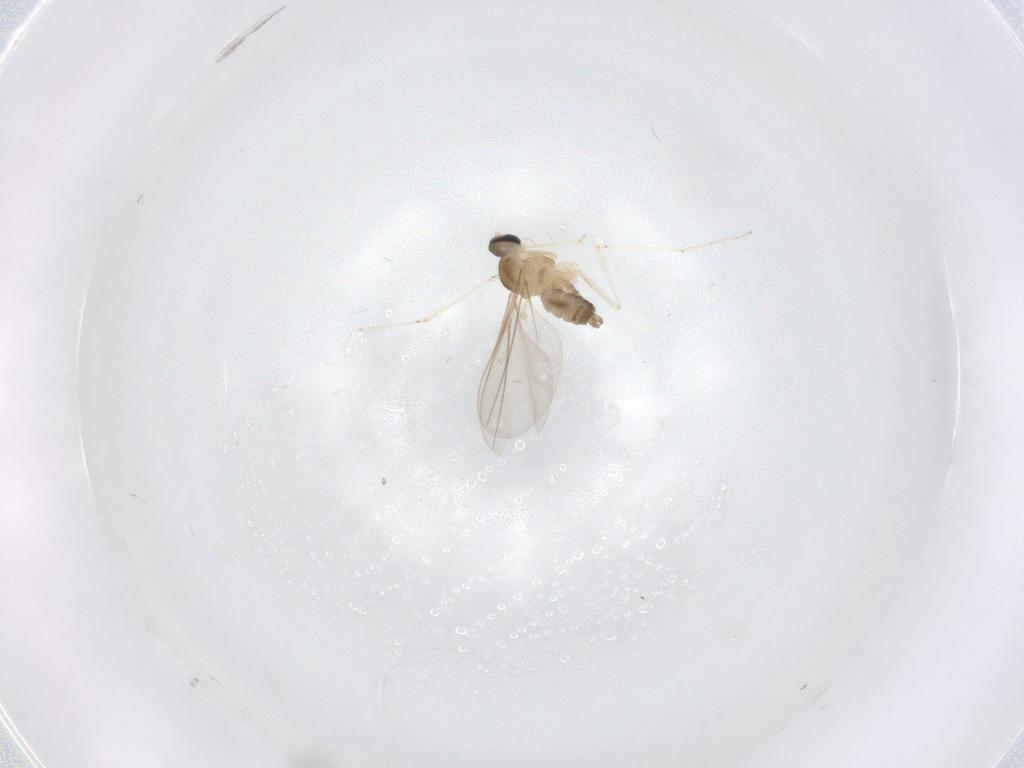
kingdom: Animalia
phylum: Arthropoda
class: Insecta
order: Diptera
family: Cecidomyiidae
